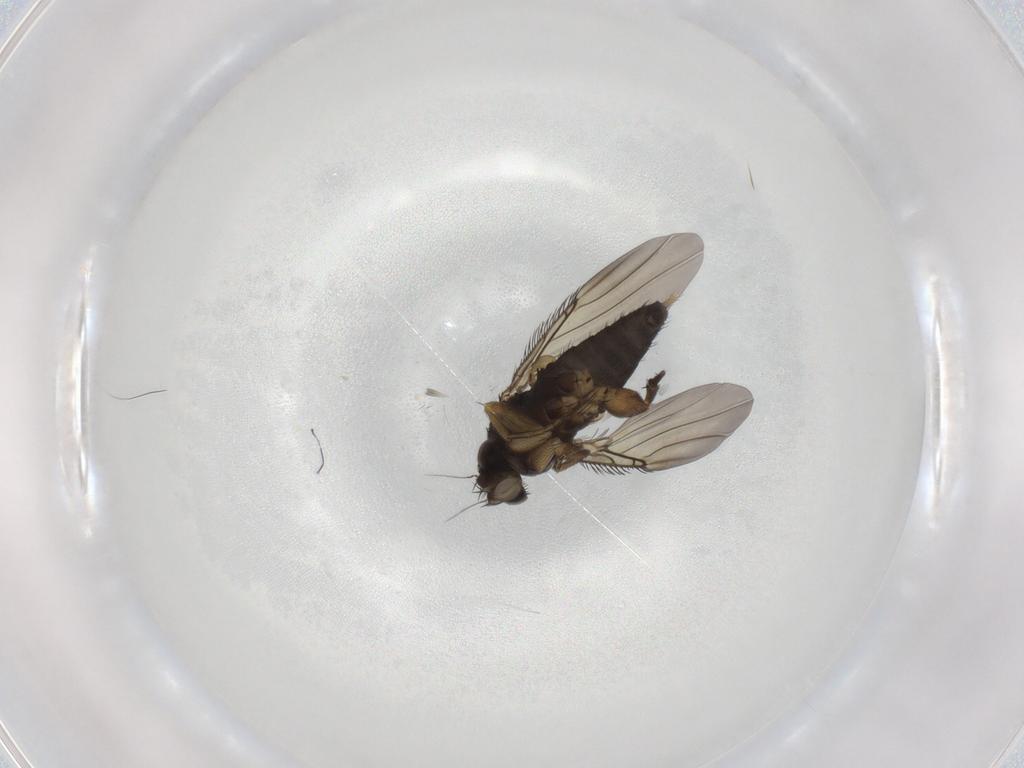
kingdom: Animalia
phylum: Arthropoda
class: Insecta
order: Diptera
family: Phoridae
